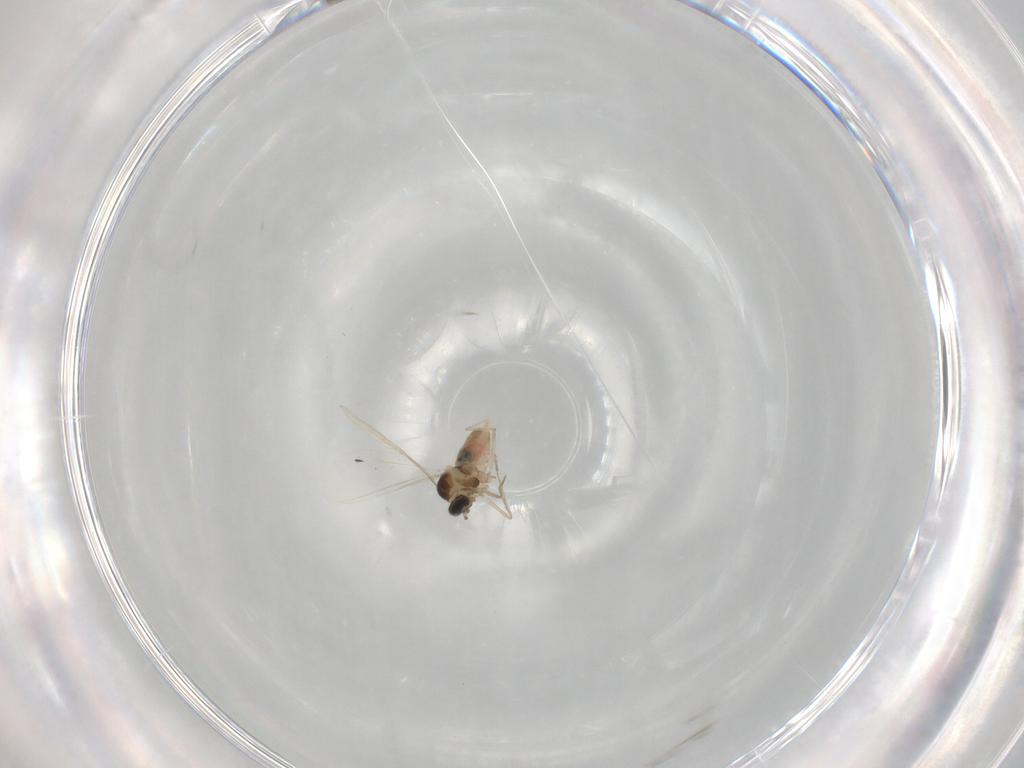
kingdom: Animalia
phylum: Arthropoda
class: Insecta
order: Diptera
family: Cecidomyiidae
